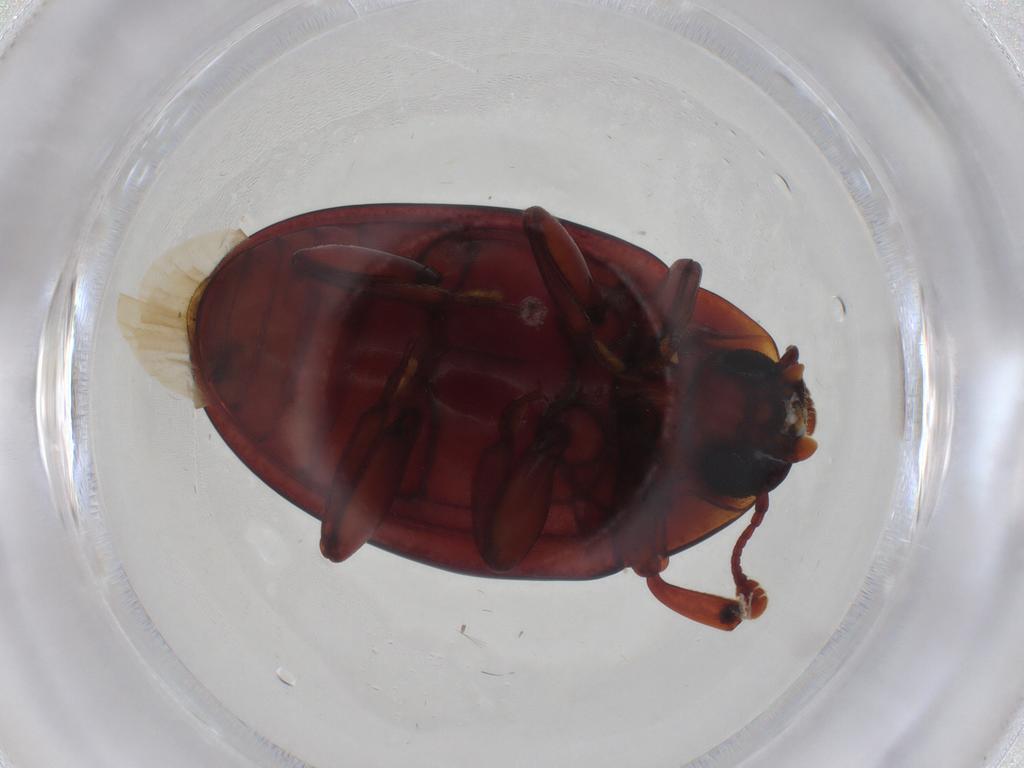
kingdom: Animalia
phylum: Arthropoda
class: Insecta
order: Coleoptera
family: Zopheridae
